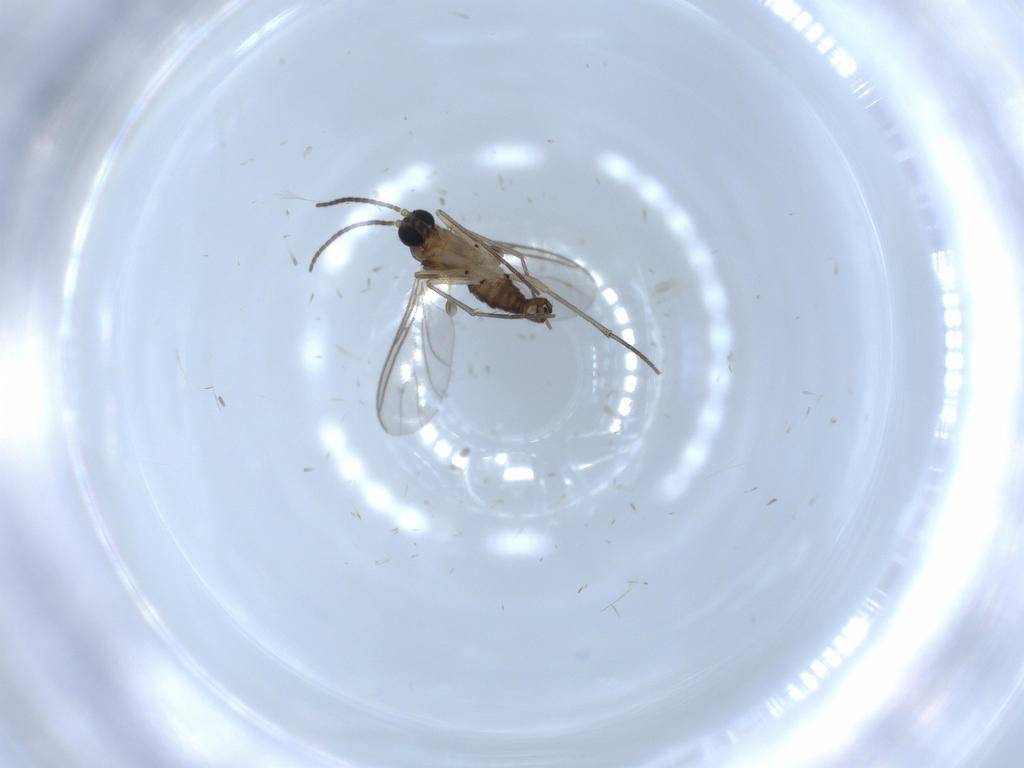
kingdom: Animalia
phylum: Arthropoda
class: Insecta
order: Diptera
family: Sciaridae
